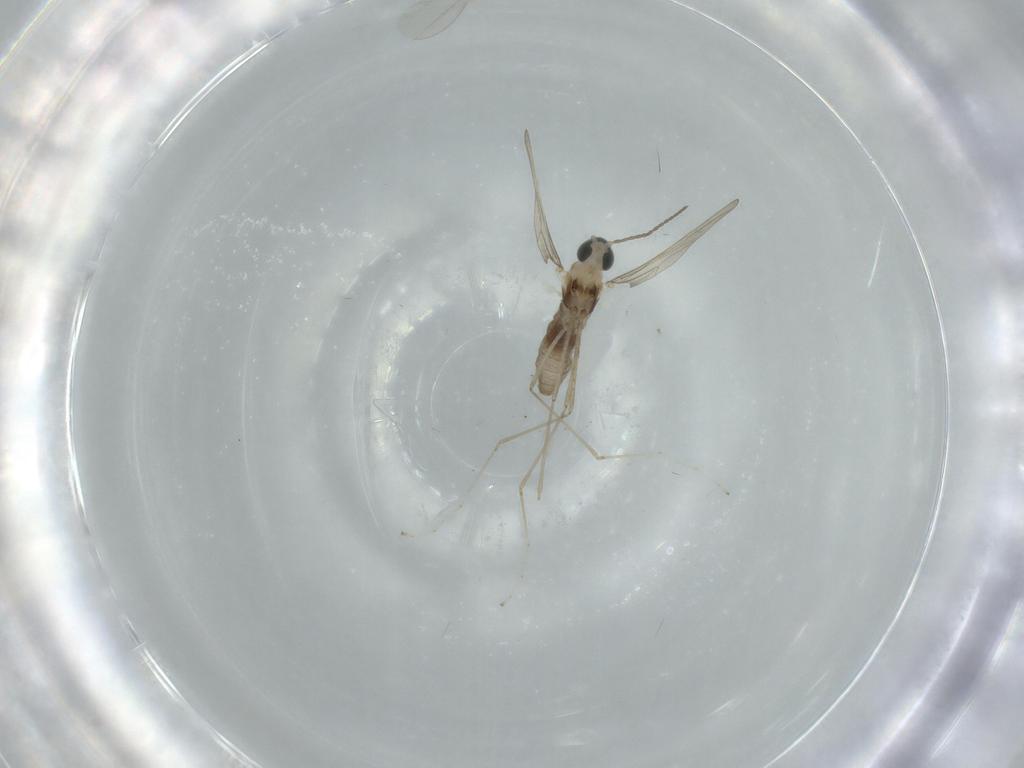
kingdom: Animalia
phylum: Arthropoda
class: Insecta
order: Diptera
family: Cecidomyiidae
